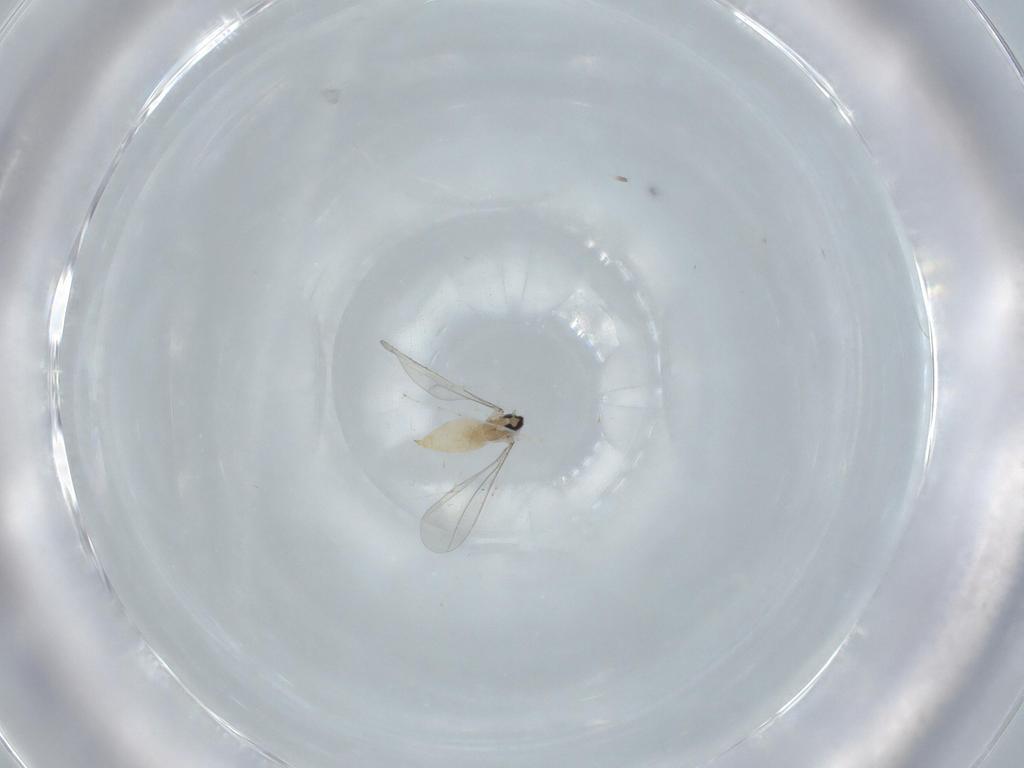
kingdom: Animalia
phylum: Arthropoda
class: Insecta
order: Diptera
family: Cecidomyiidae
